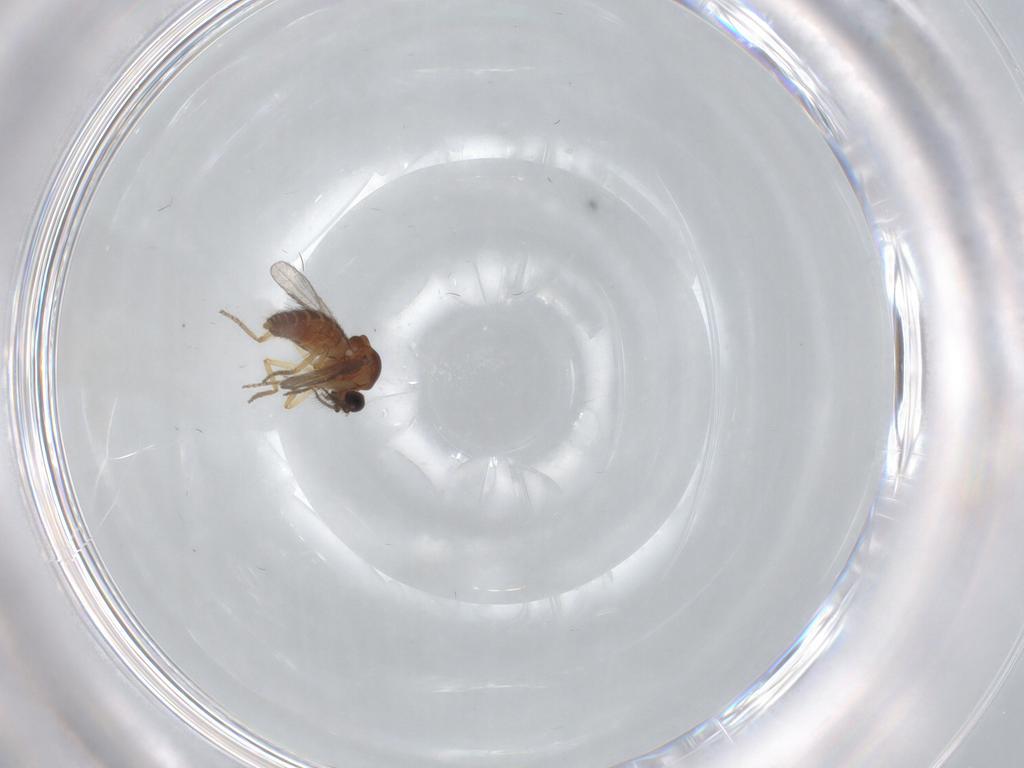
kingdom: Animalia
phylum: Arthropoda
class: Insecta
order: Diptera
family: Ceratopogonidae
